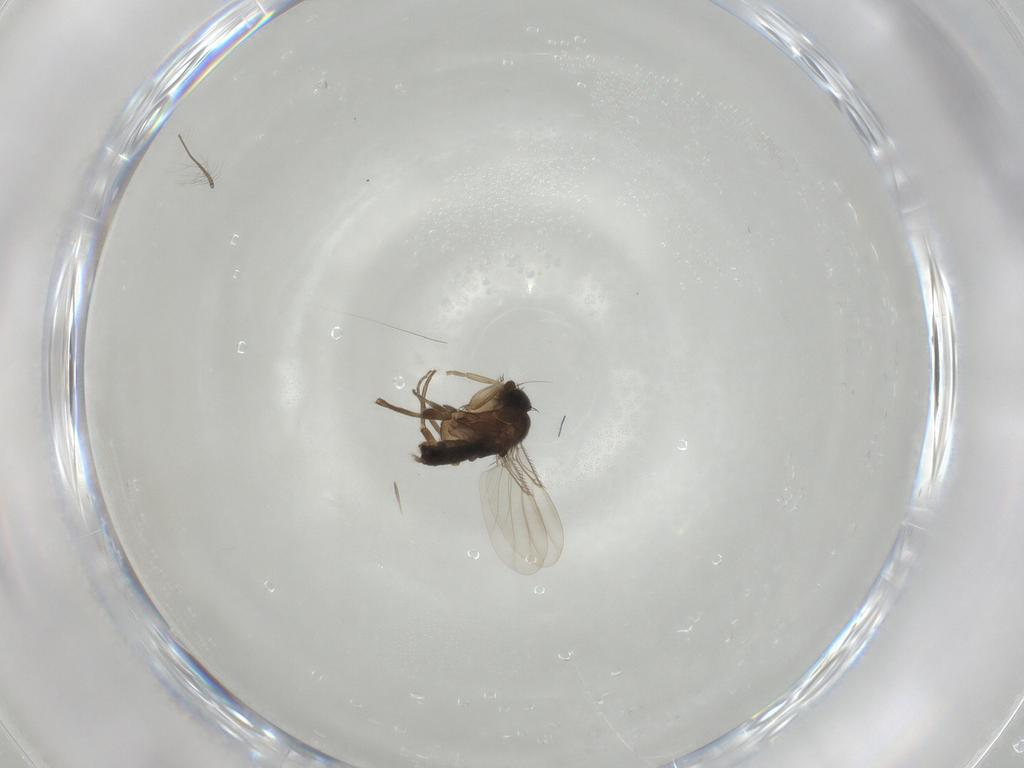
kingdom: Animalia
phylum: Arthropoda
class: Insecta
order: Diptera
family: Phoridae
